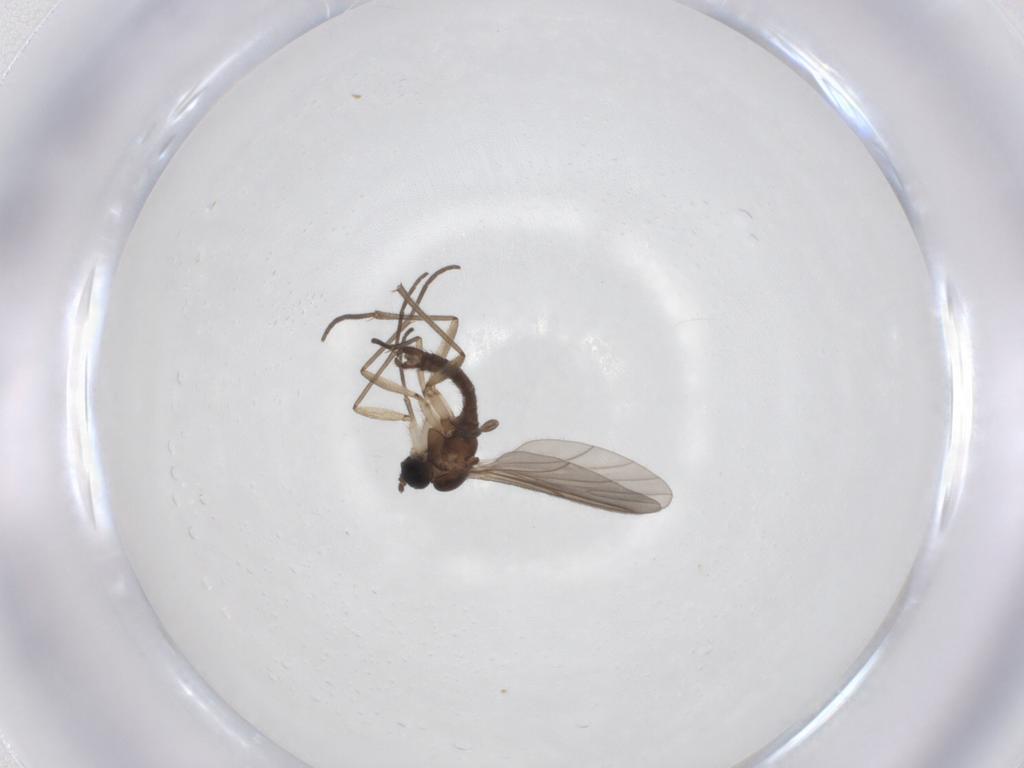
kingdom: Animalia
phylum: Arthropoda
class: Insecta
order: Diptera
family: Sciaridae
